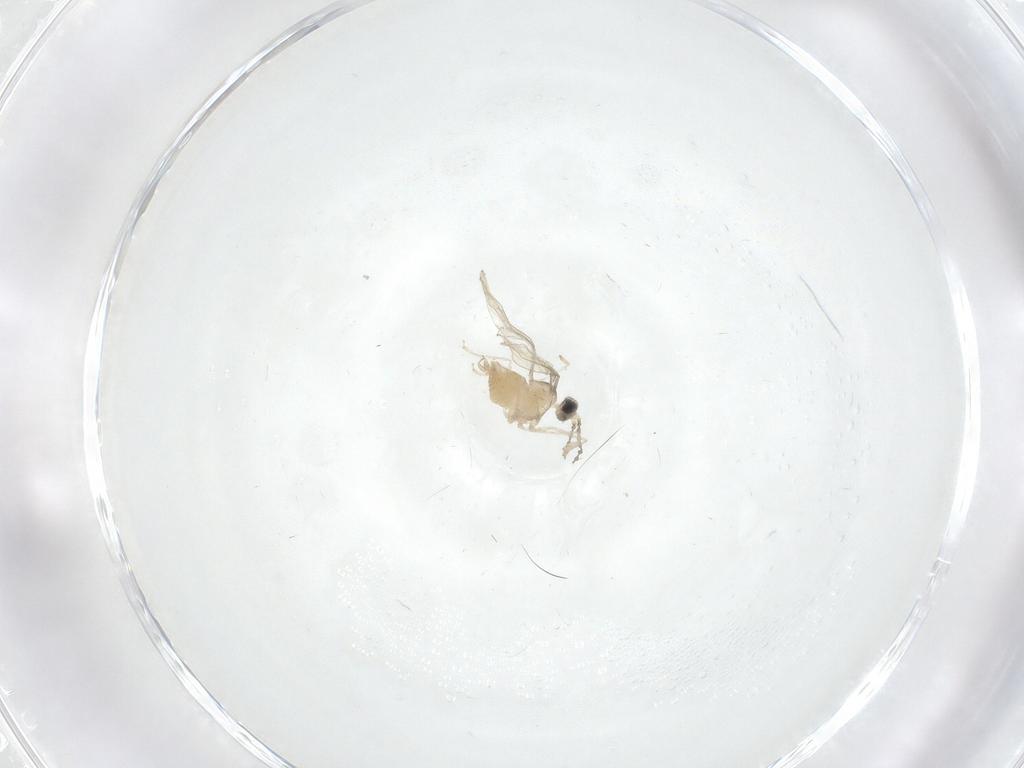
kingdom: Animalia
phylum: Arthropoda
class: Insecta
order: Diptera
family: Cecidomyiidae
